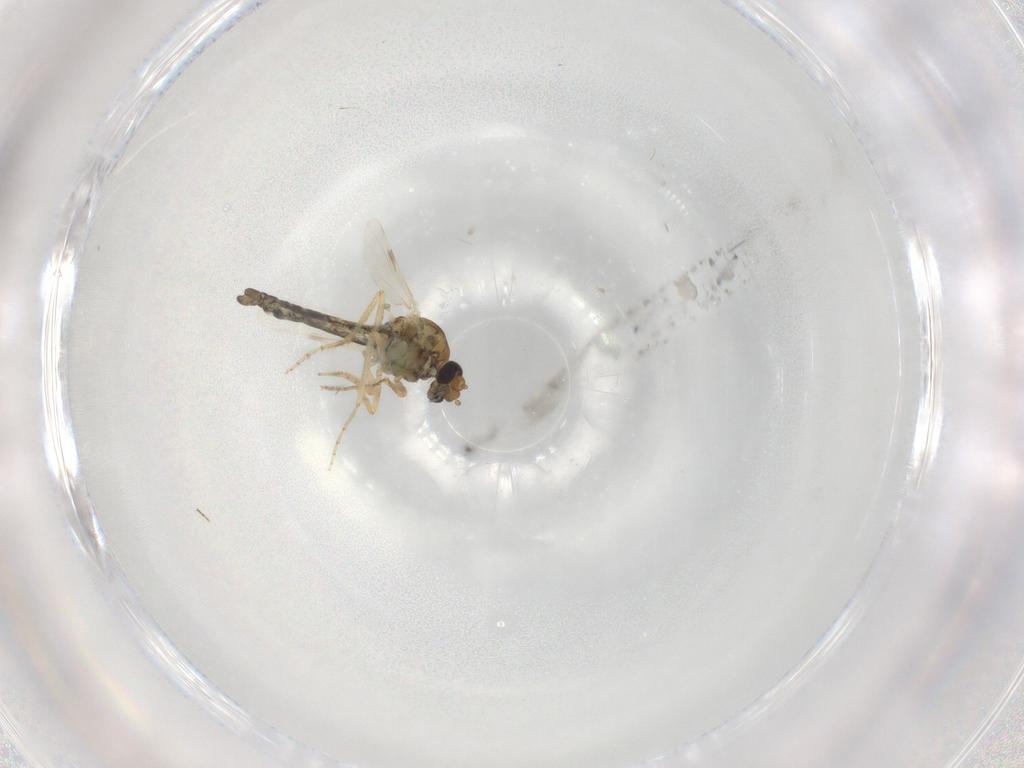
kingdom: Animalia
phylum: Arthropoda
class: Insecta
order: Diptera
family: Ceratopogonidae
